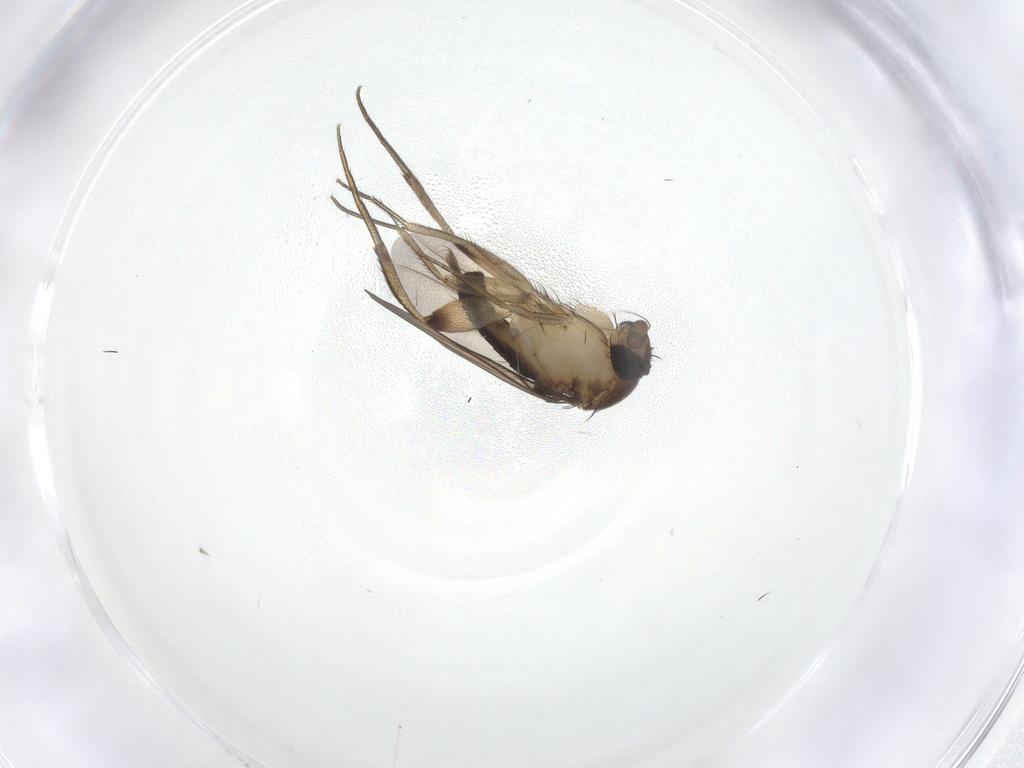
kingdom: Animalia
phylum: Arthropoda
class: Insecta
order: Diptera
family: Phoridae
